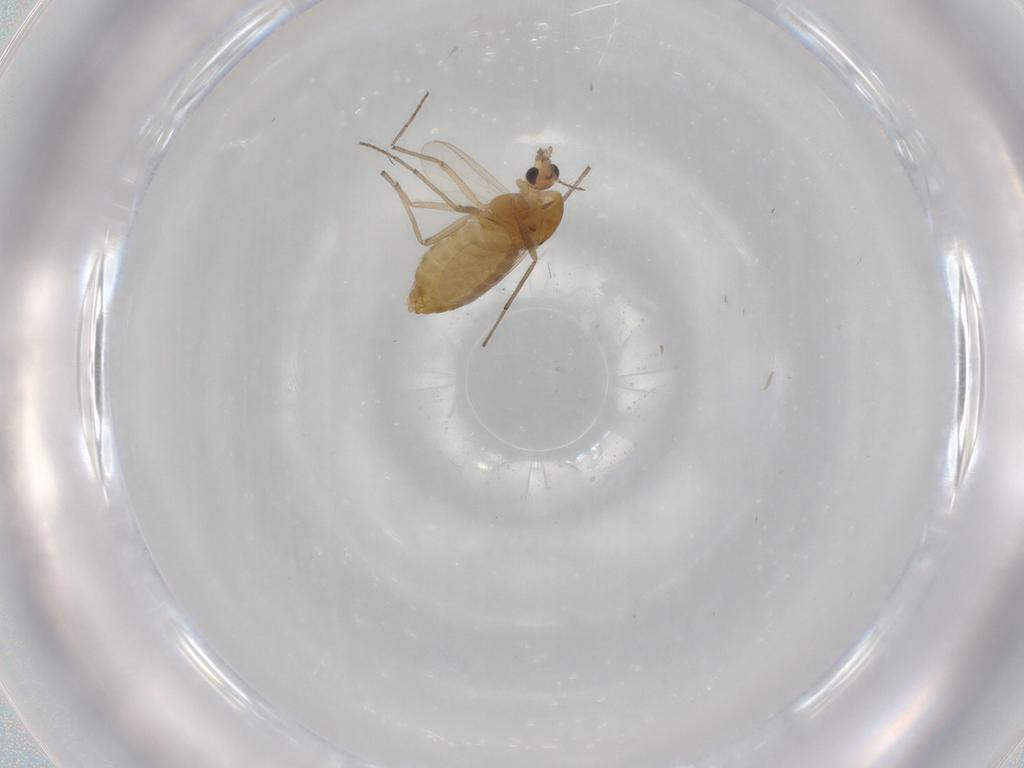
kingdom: Animalia
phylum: Arthropoda
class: Insecta
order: Diptera
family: Chironomidae
